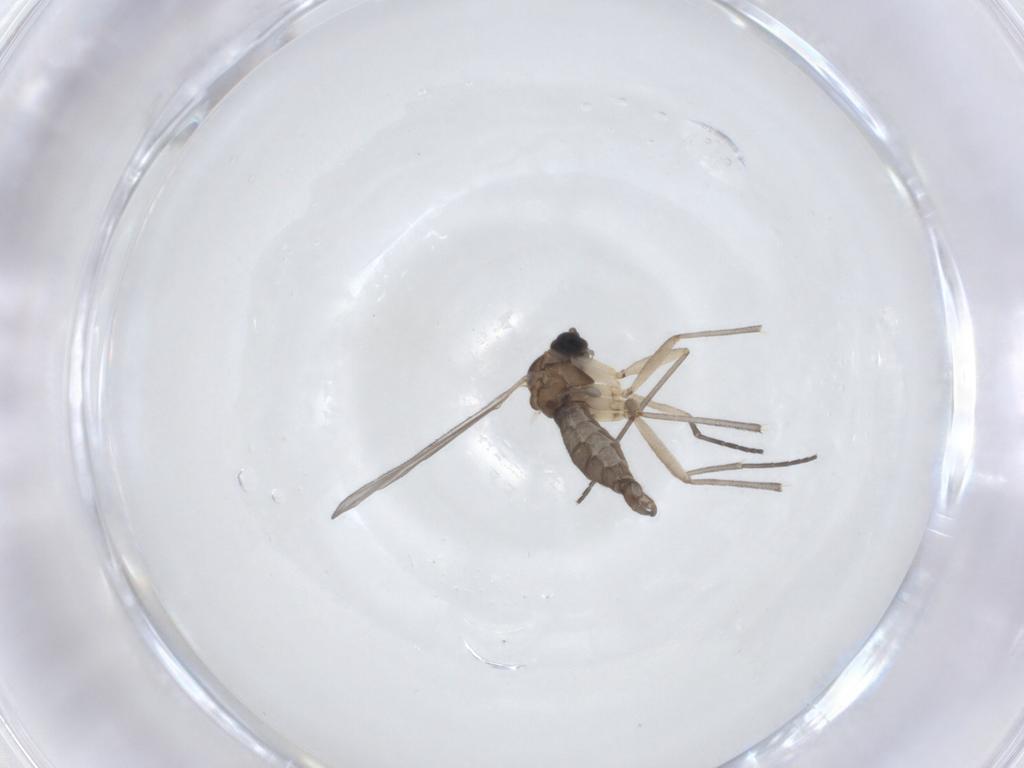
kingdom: Animalia
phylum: Arthropoda
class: Insecta
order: Diptera
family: Sciaridae
